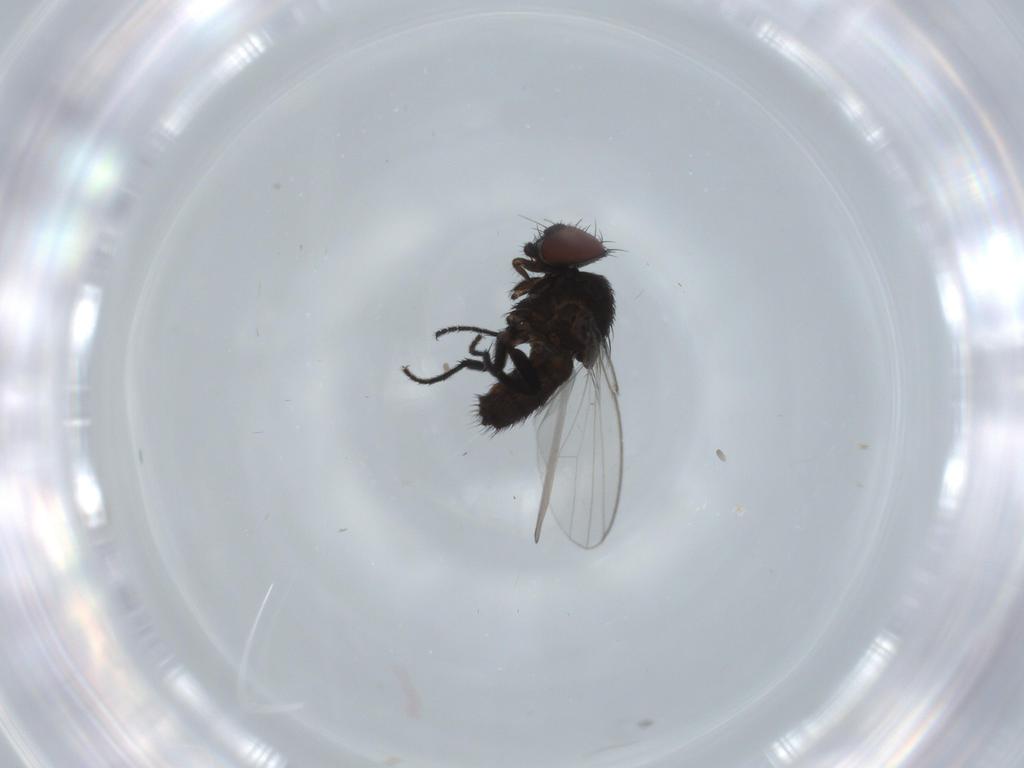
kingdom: Animalia
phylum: Arthropoda
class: Insecta
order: Diptera
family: Milichiidae
